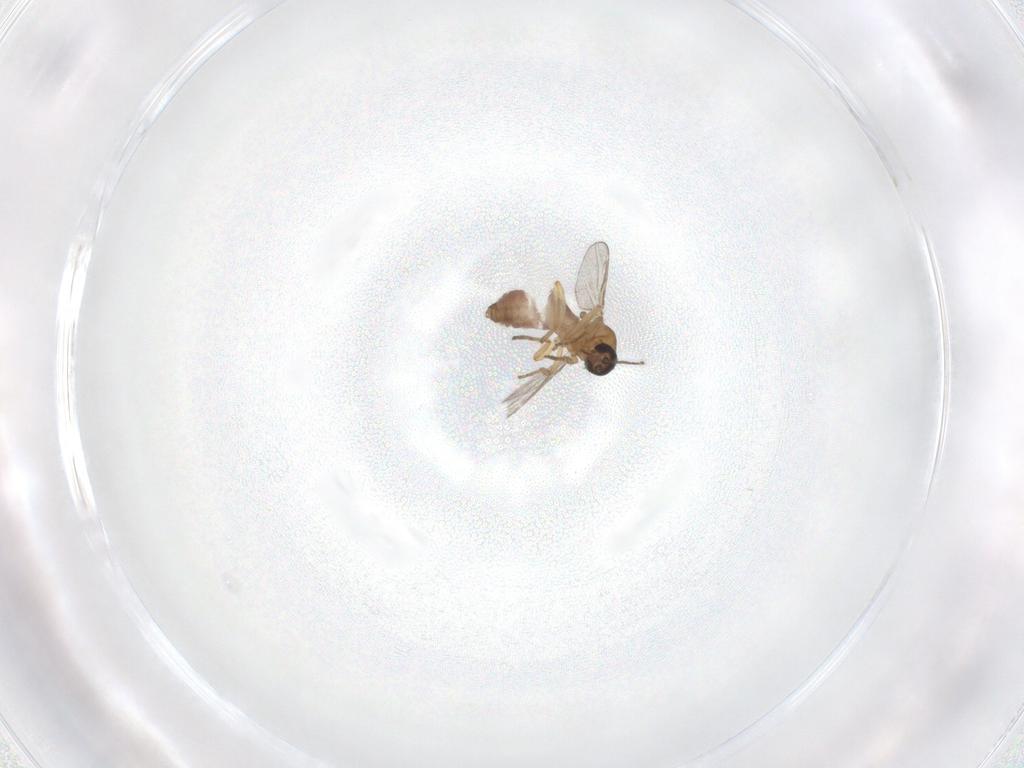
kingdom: Animalia
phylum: Arthropoda
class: Insecta
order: Diptera
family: Ceratopogonidae
